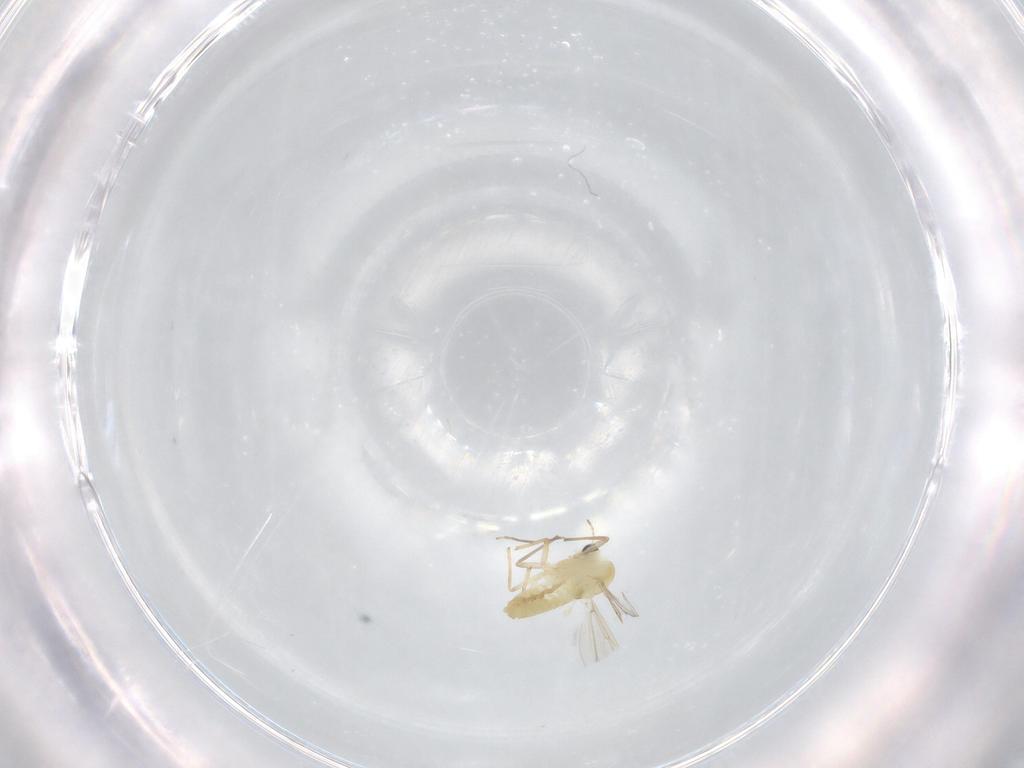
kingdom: Animalia
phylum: Arthropoda
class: Insecta
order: Diptera
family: Chironomidae
